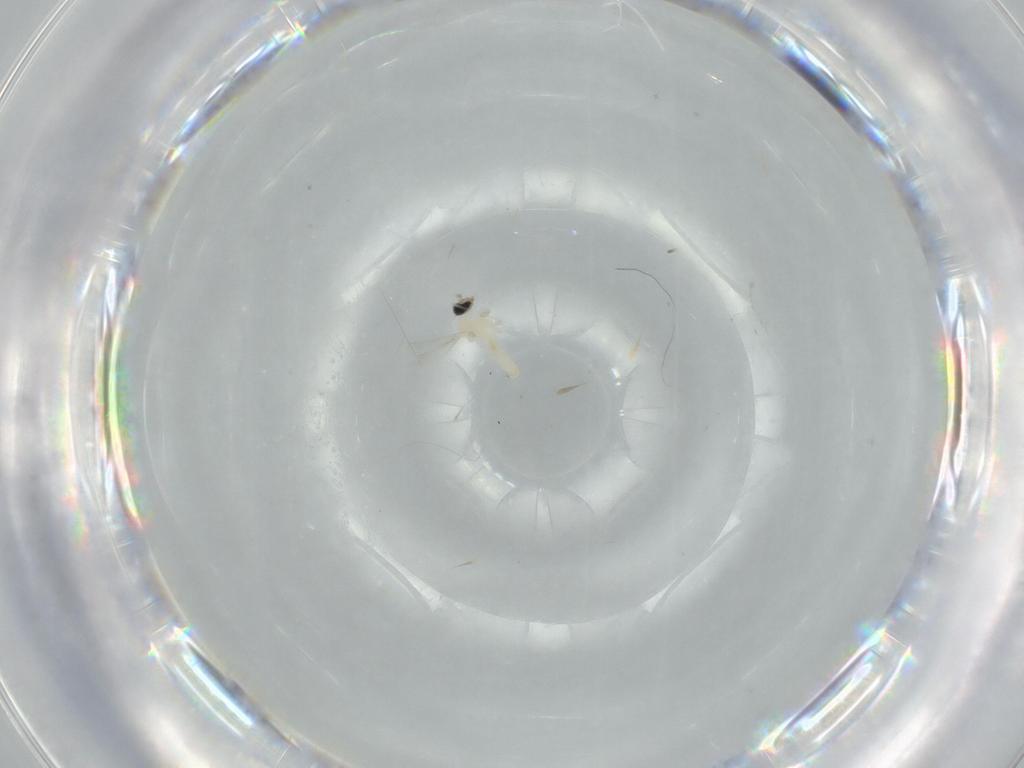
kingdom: Animalia
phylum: Arthropoda
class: Insecta
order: Diptera
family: Cecidomyiidae
